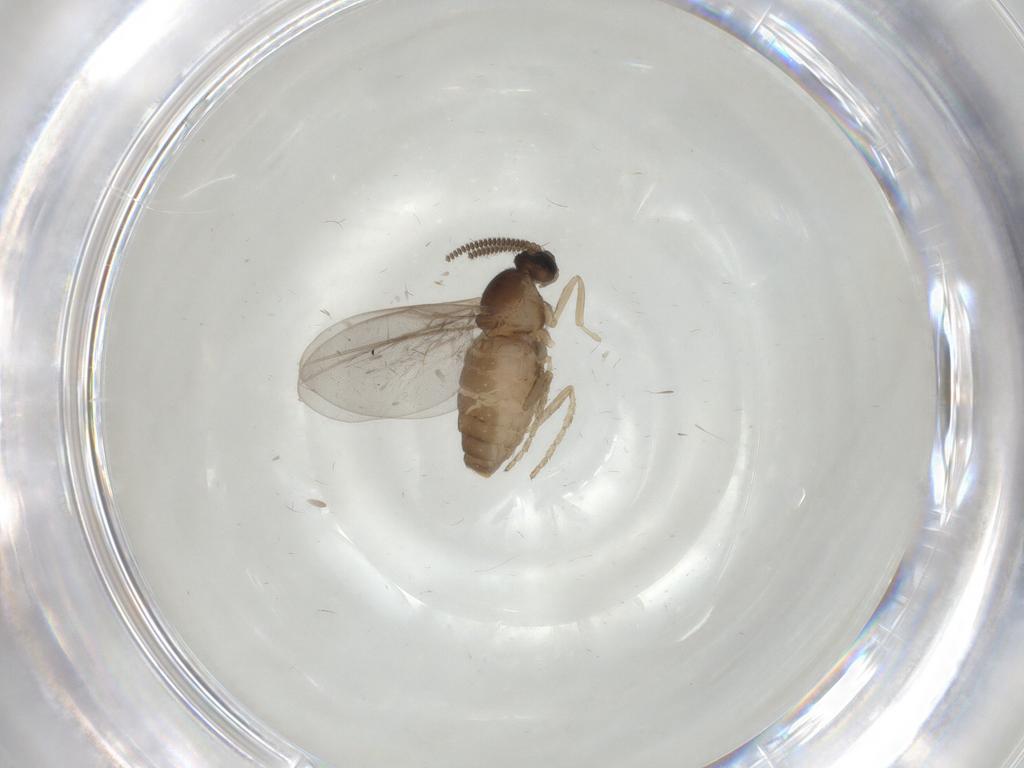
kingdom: Animalia
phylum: Arthropoda
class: Insecta
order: Diptera
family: Cecidomyiidae
